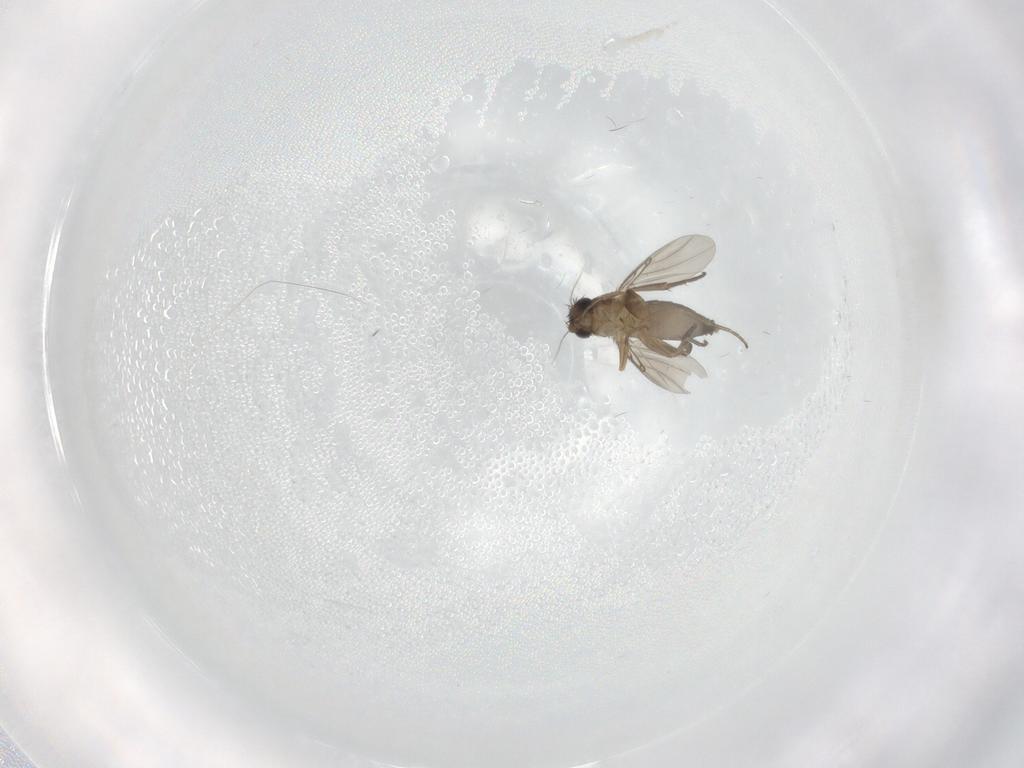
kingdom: Animalia
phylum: Arthropoda
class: Insecta
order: Diptera
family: Phoridae
